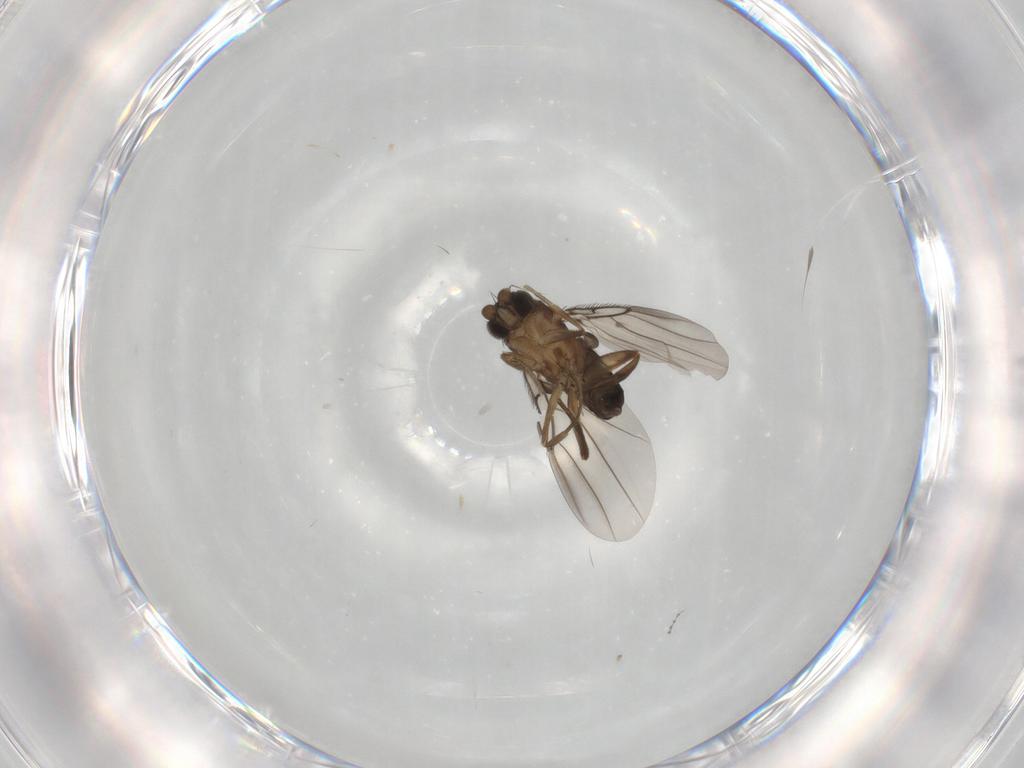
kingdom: Animalia
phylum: Arthropoda
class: Insecta
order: Diptera
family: Phoridae
